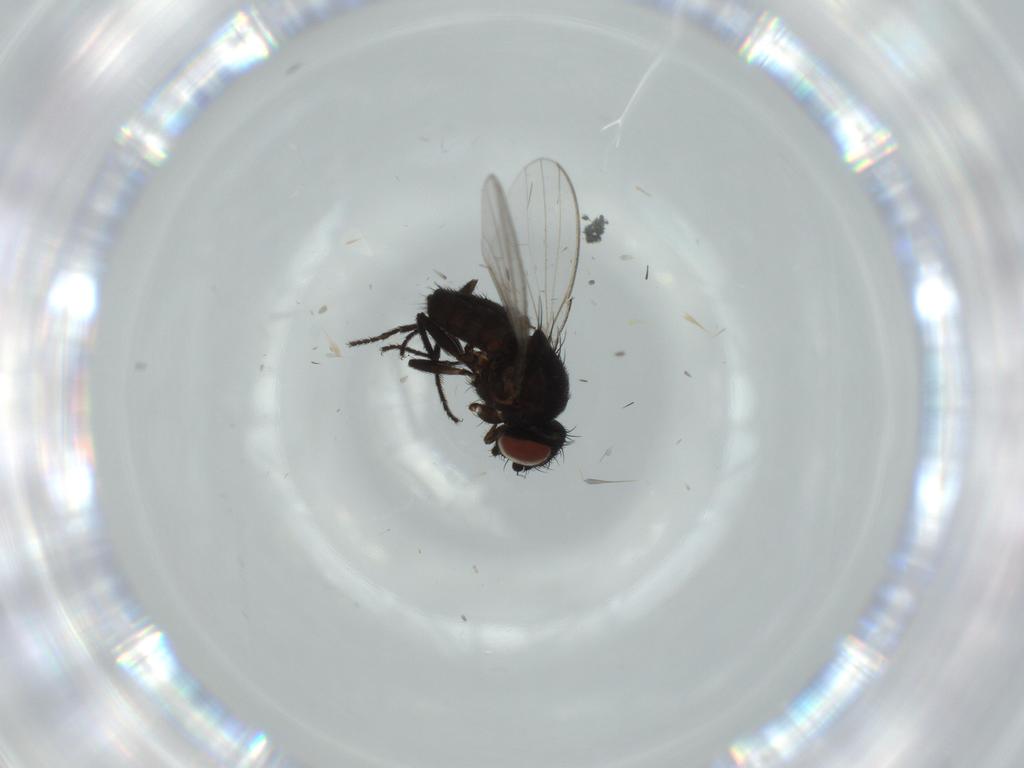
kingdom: Animalia
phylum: Arthropoda
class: Insecta
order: Diptera
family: Milichiidae
